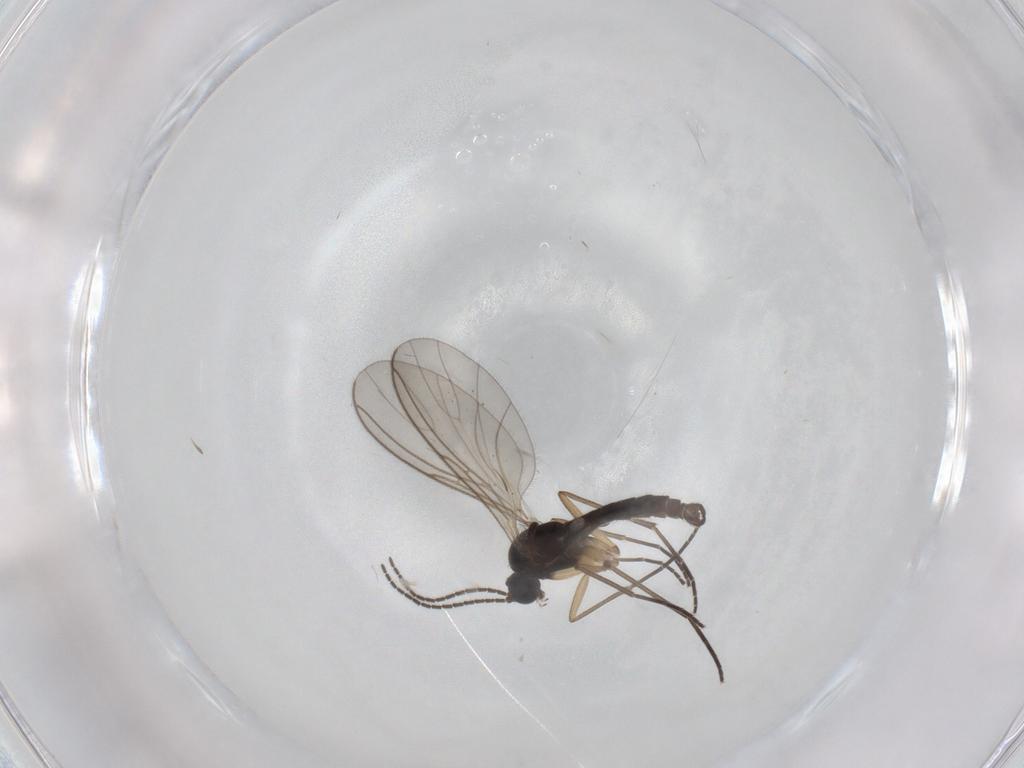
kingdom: Animalia
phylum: Arthropoda
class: Insecta
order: Diptera
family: Sciaridae
